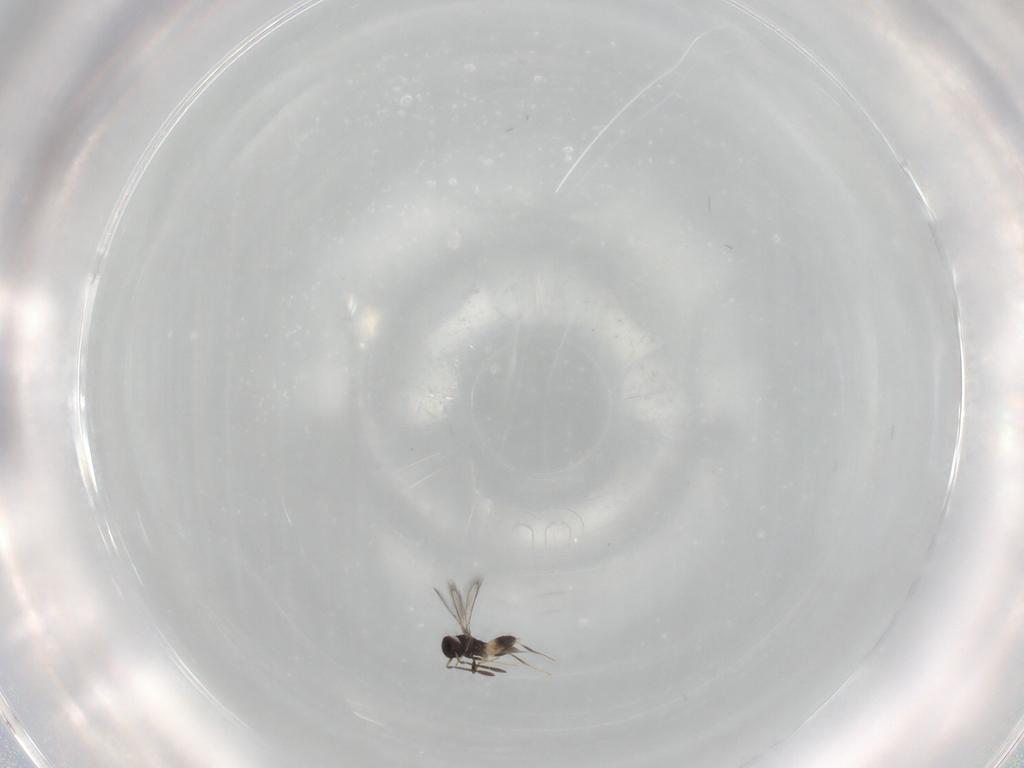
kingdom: Animalia
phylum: Arthropoda
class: Insecta
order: Hymenoptera
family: Mymaridae
